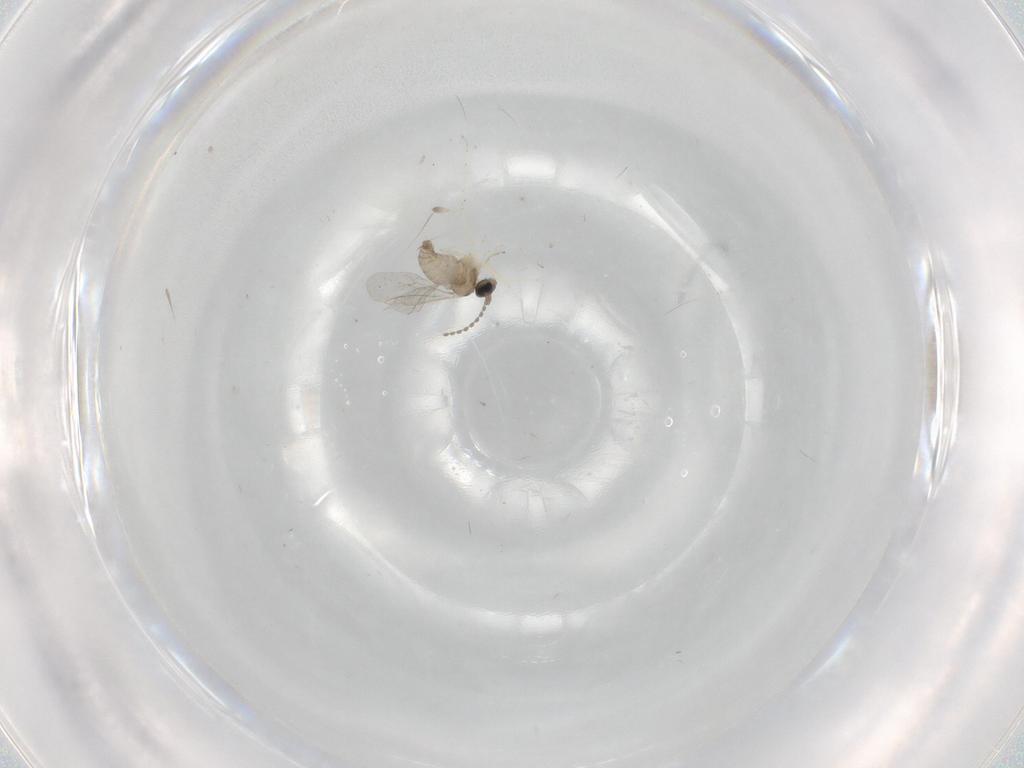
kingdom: Animalia
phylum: Arthropoda
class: Insecta
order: Diptera
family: Cecidomyiidae
